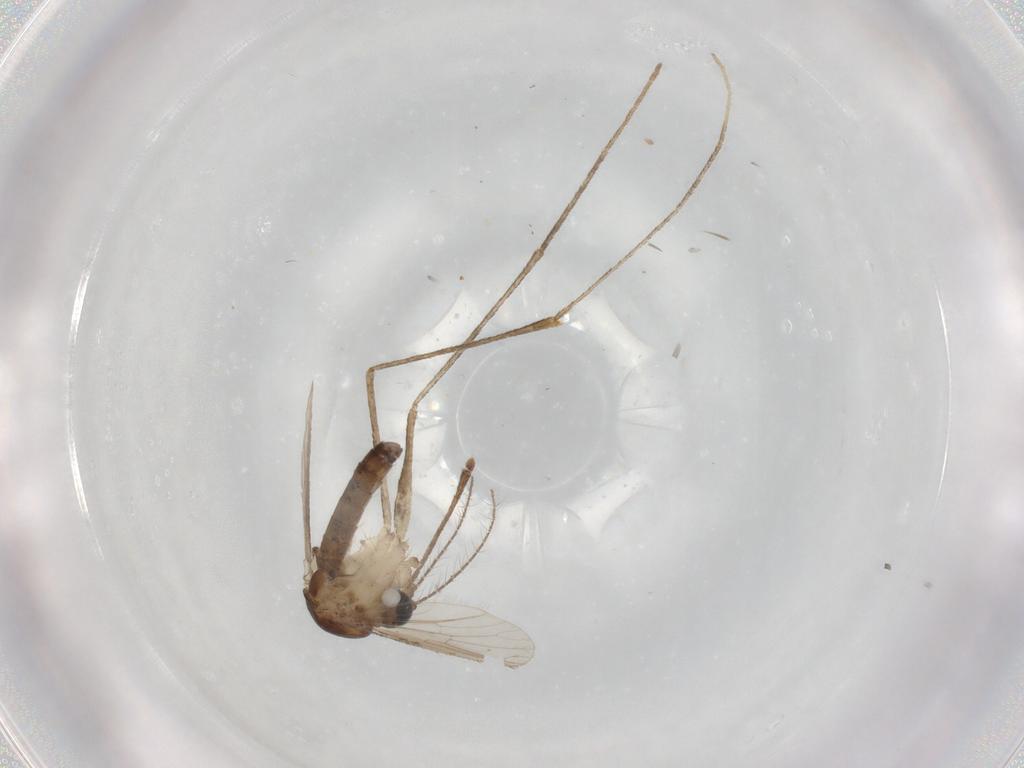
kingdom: Animalia
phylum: Arthropoda
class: Insecta
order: Diptera
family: Culicidae
